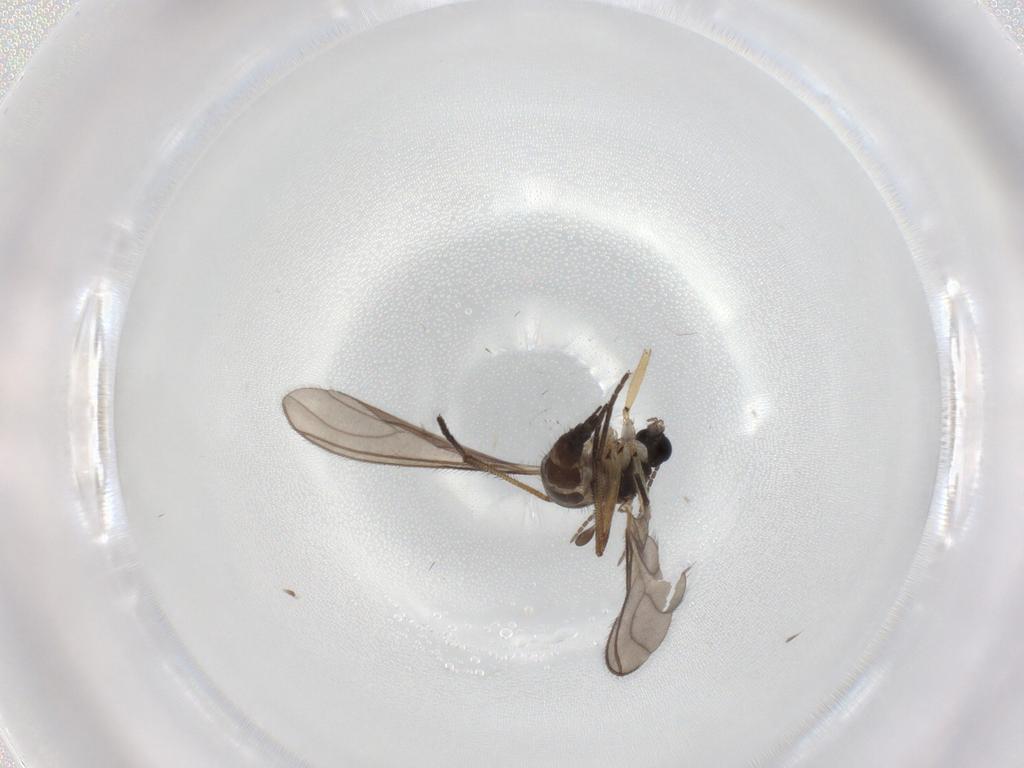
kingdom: Animalia
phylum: Arthropoda
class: Insecta
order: Diptera
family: Sciaridae
